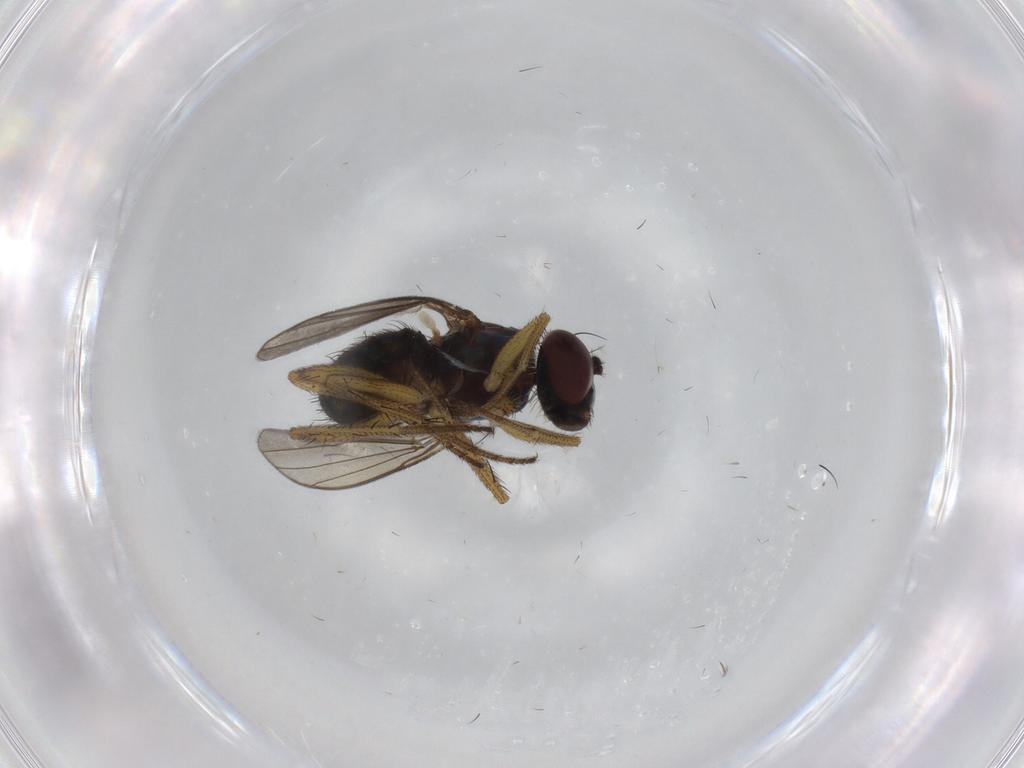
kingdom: Animalia
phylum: Arthropoda
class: Insecta
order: Diptera
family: Dolichopodidae
